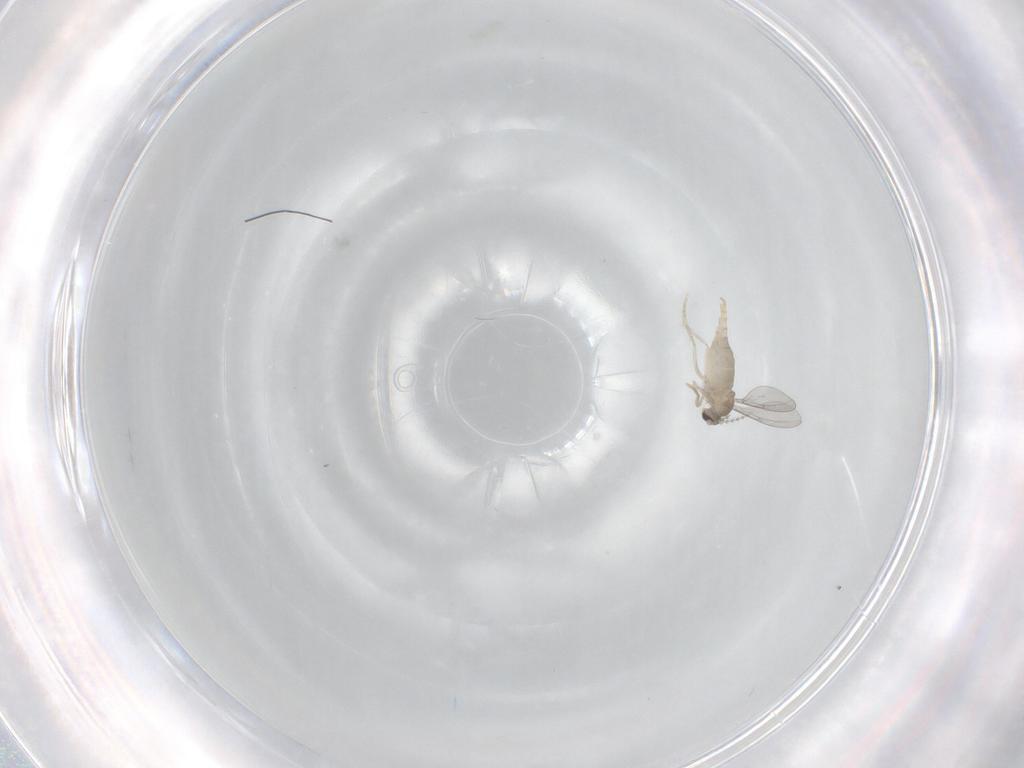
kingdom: Animalia
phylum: Arthropoda
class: Insecta
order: Diptera
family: Cecidomyiidae
